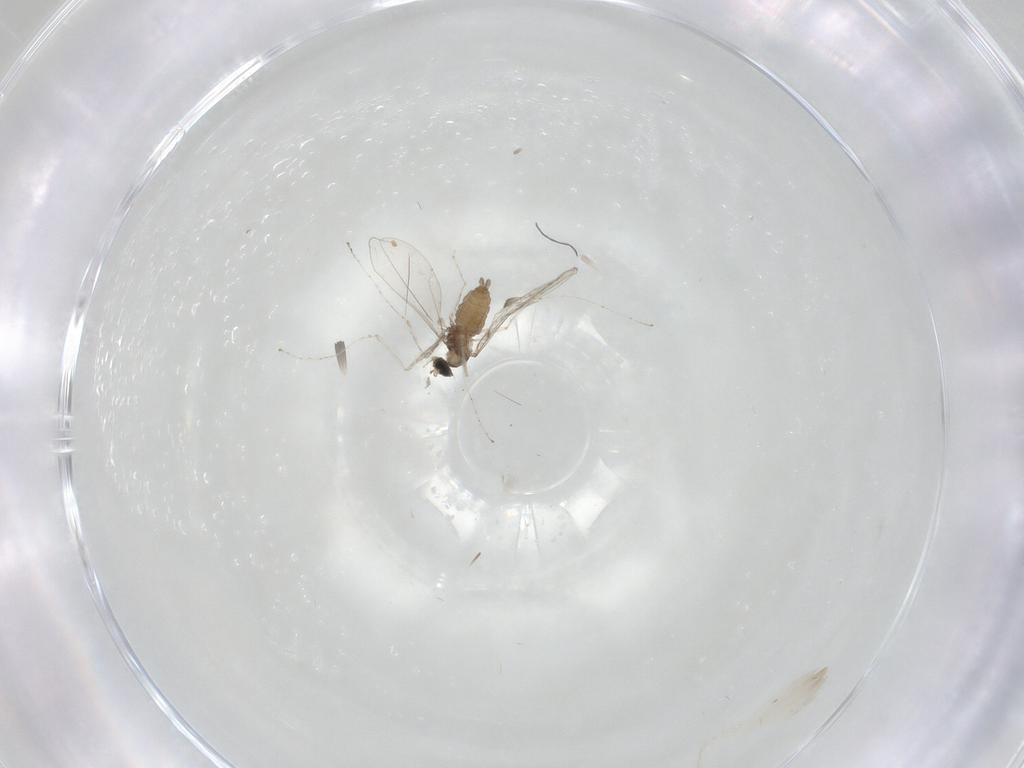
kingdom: Animalia
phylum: Arthropoda
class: Insecta
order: Diptera
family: Cecidomyiidae
